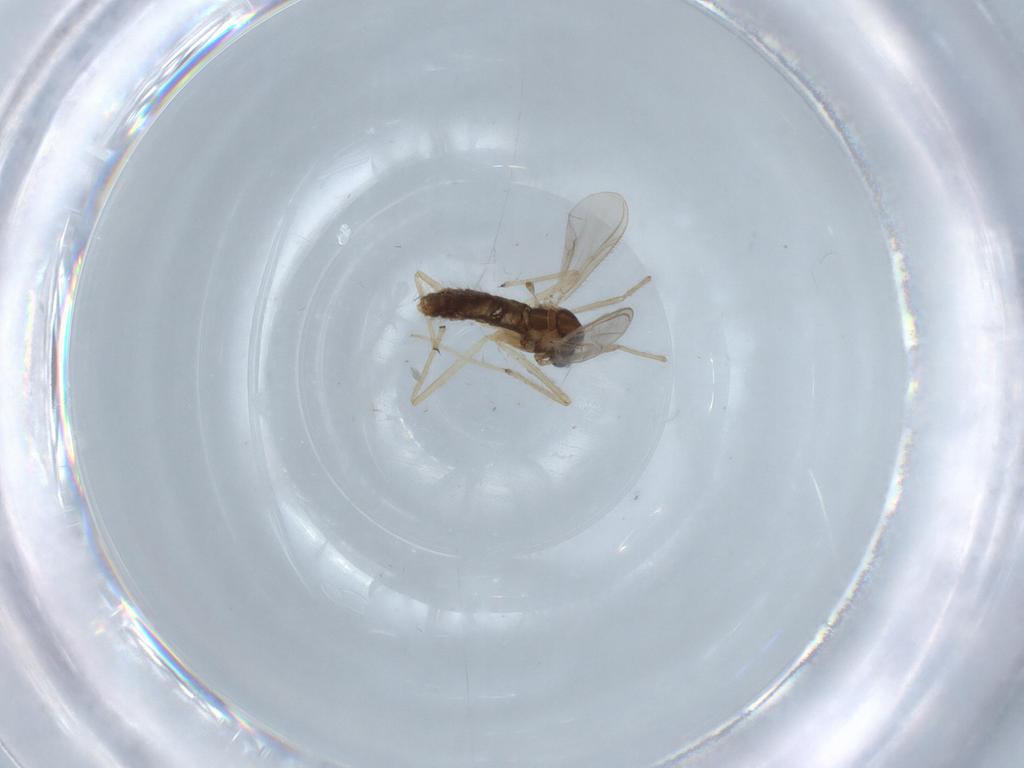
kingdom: Animalia
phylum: Arthropoda
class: Insecta
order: Diptera
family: Chironomidae
